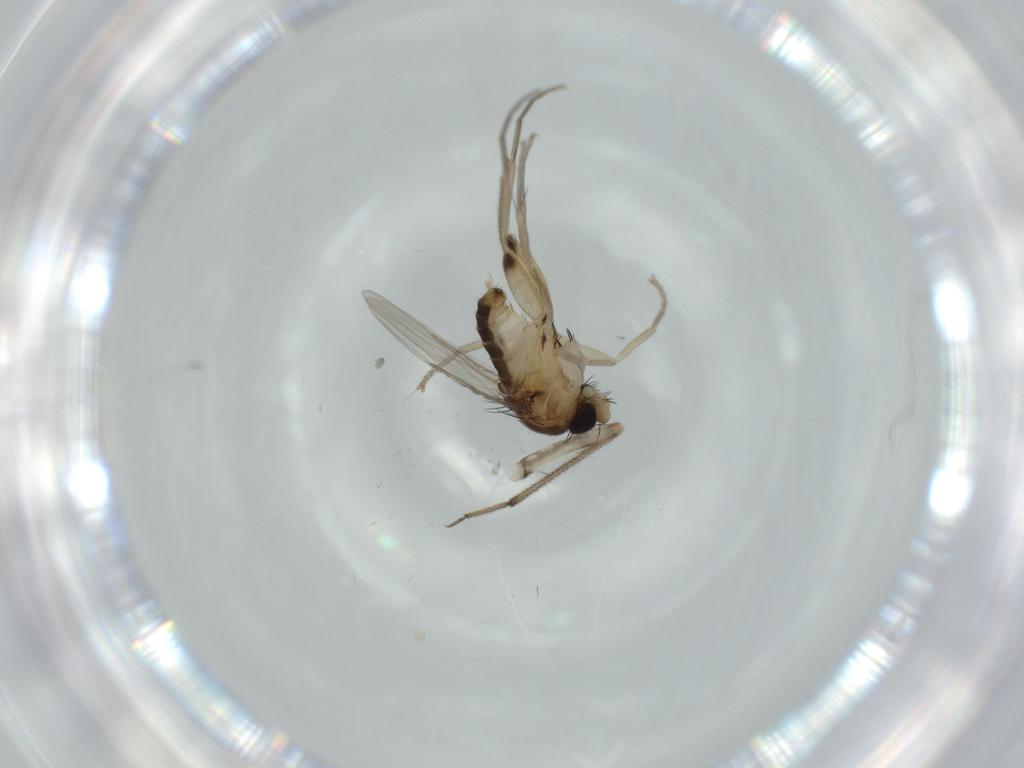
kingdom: Animalia
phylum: Arthropoda
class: Insecta
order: Diptera
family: Phoridae
